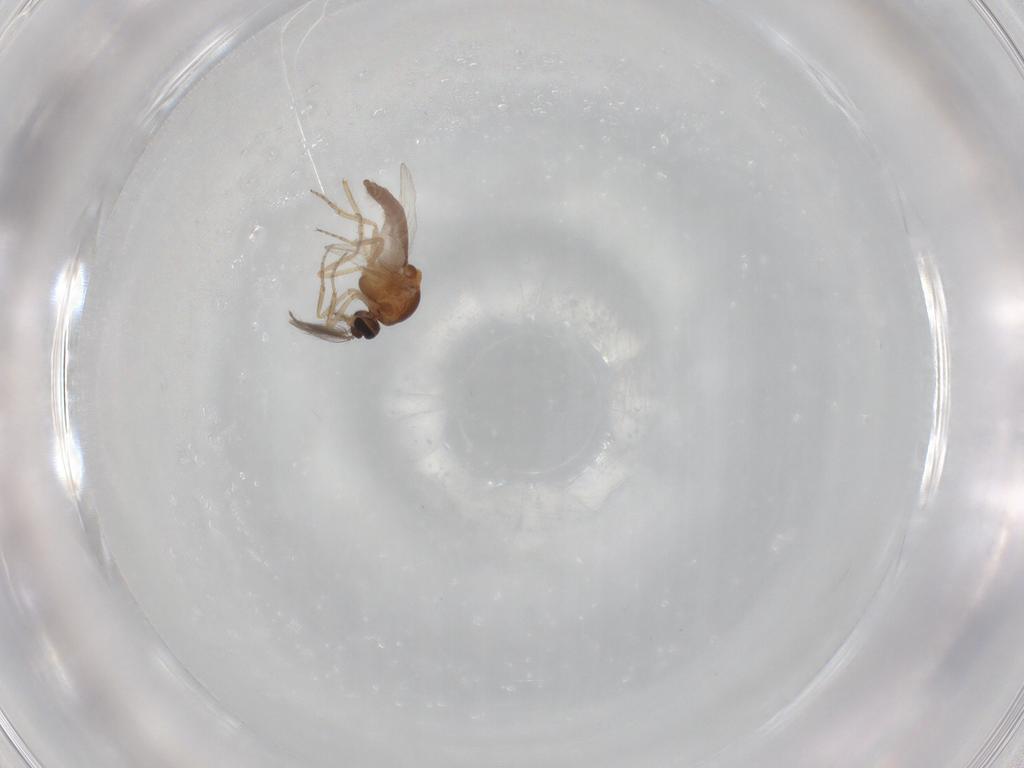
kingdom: Animalia
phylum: Arthropoda
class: Insecta
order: Diptera
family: Ceratopogonidae
